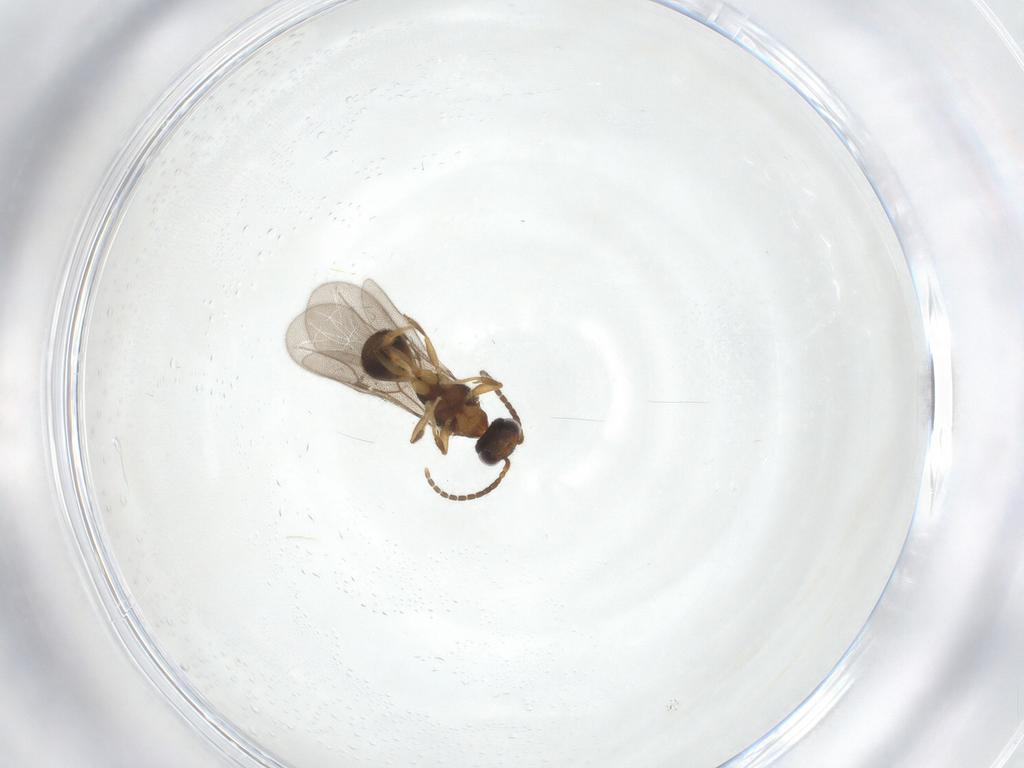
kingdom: Animalia
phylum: Arthropoda
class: Insecta
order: Hymenoptera
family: Bethylidae
